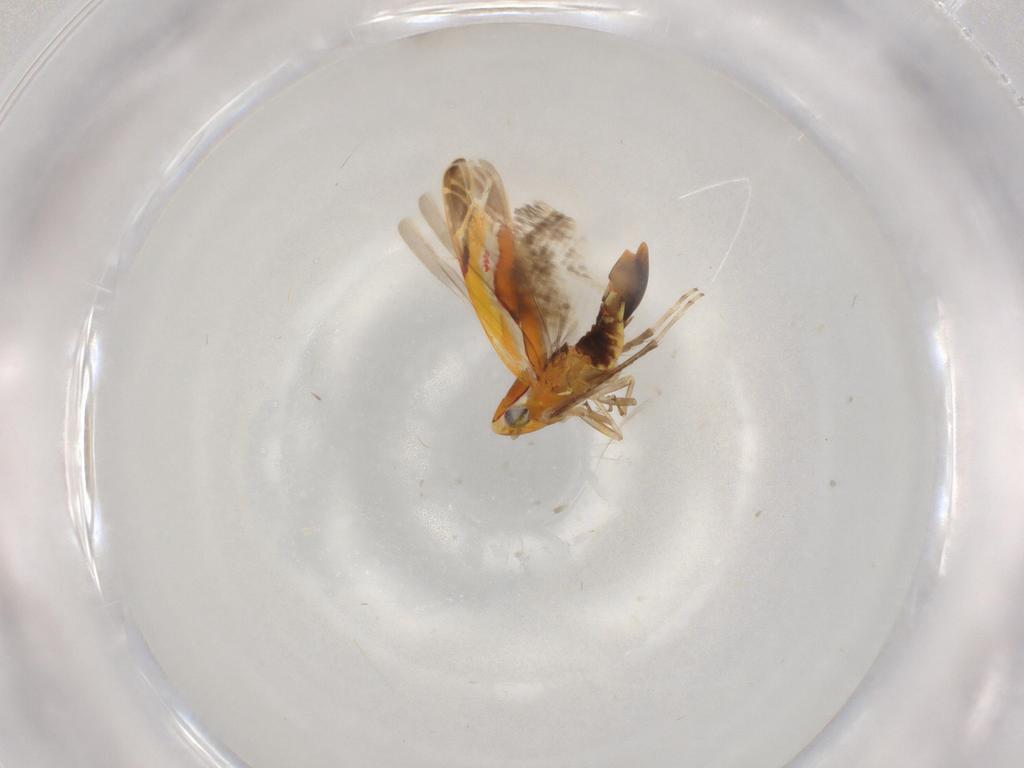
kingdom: Animalia
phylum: Arthropoda
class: Insecta
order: Hemiptera
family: Cicadellidae
